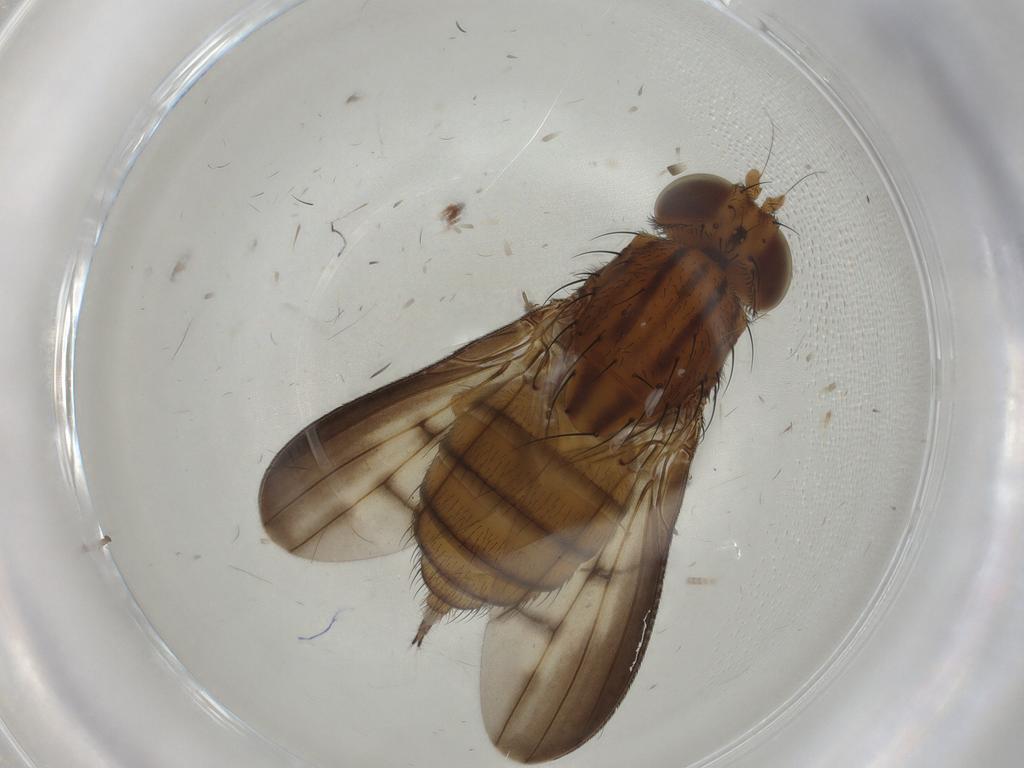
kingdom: Animalia
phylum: Arthropoda
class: Insecta
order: Diptera
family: Lauxaniidae
